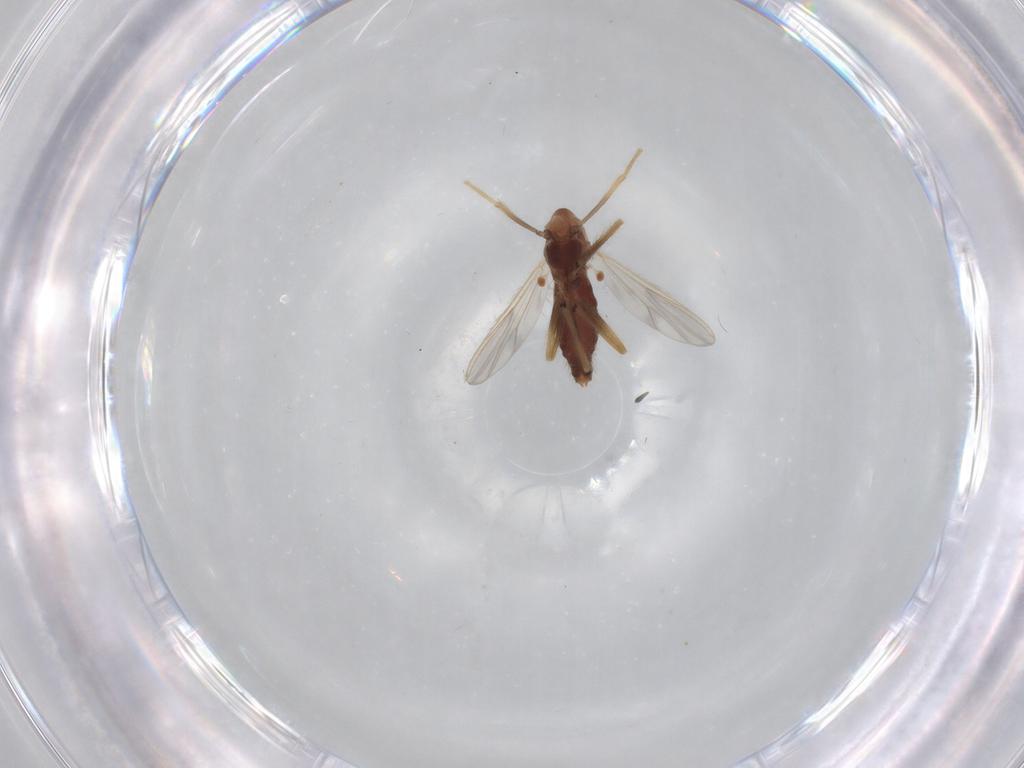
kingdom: Animalia
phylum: Arthropoda
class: Insecta
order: Diptera
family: Chironomidae
